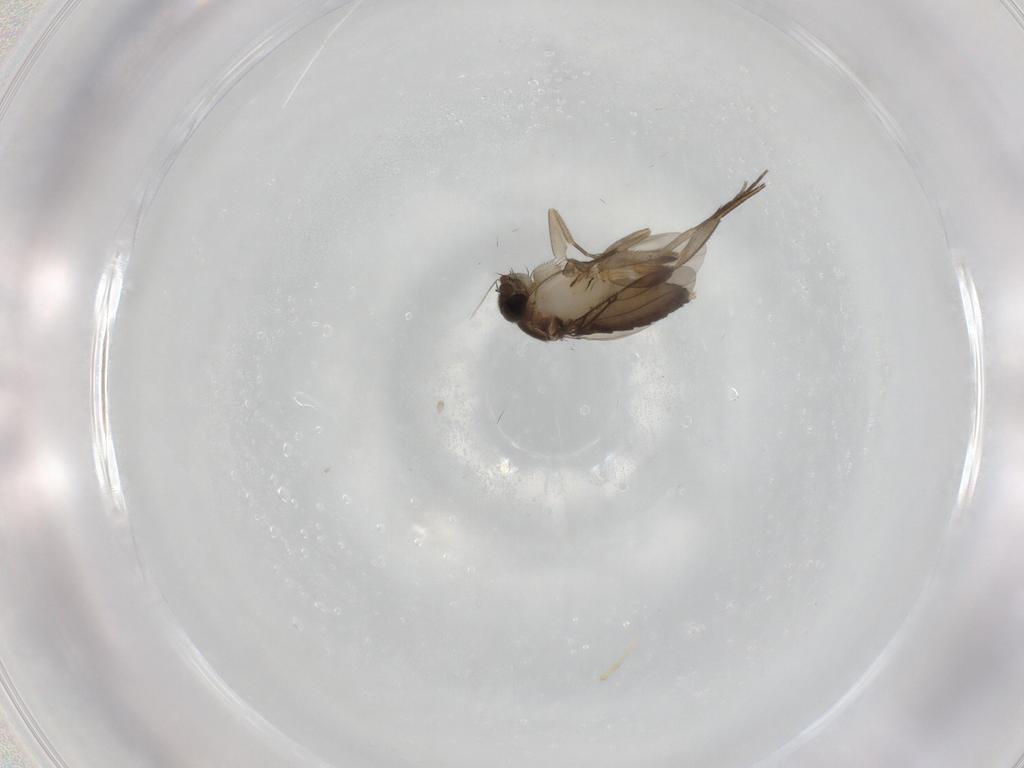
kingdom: Animalia
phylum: Arthropoda
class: Insecta
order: Diptera
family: Phoridae
